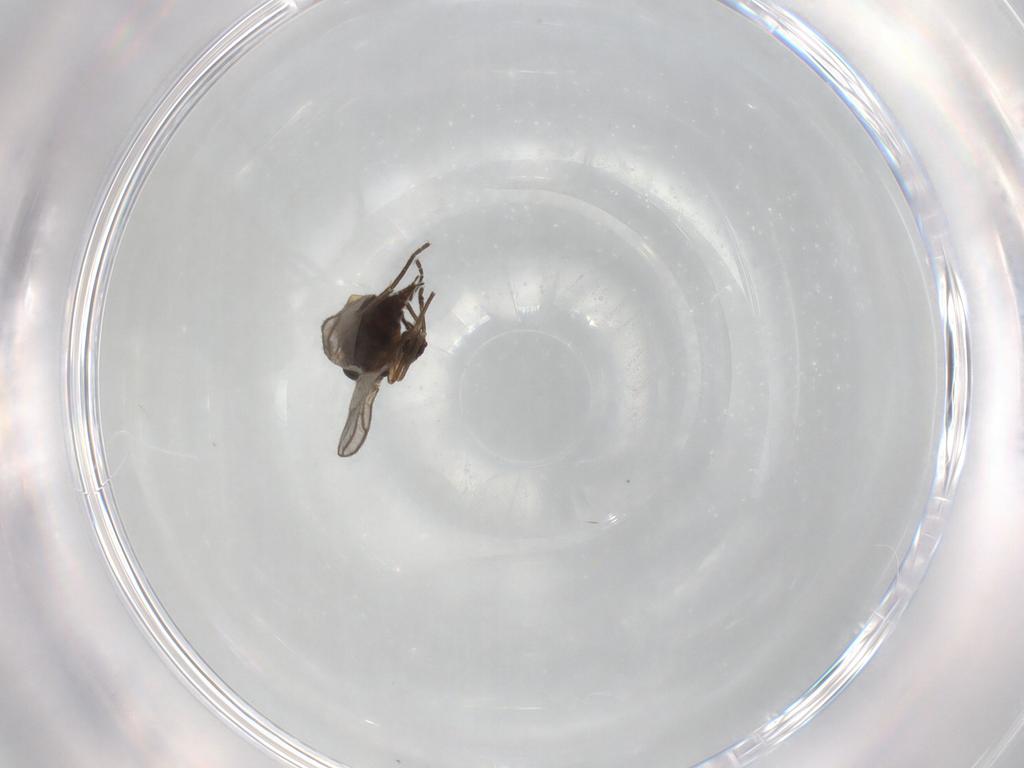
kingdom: Animalia
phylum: Arthropoda
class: Insecta
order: Diptera
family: Sciaridae
